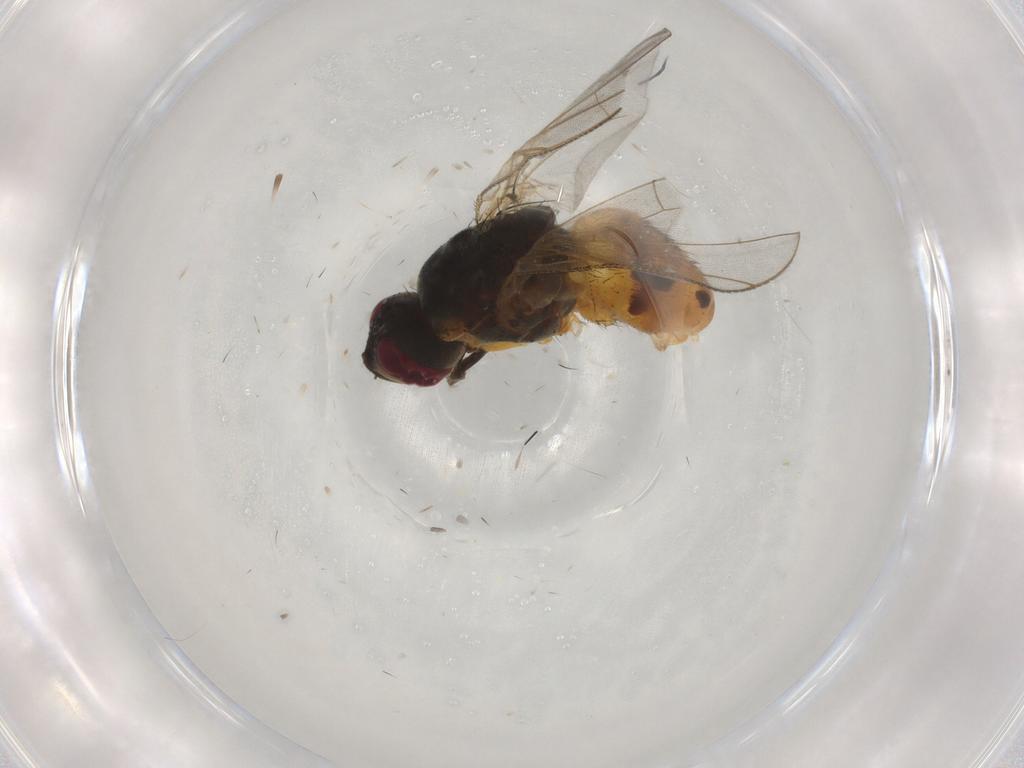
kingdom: Animalia
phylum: Arthropoda
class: Insecta
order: Diptera
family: Muscidae
